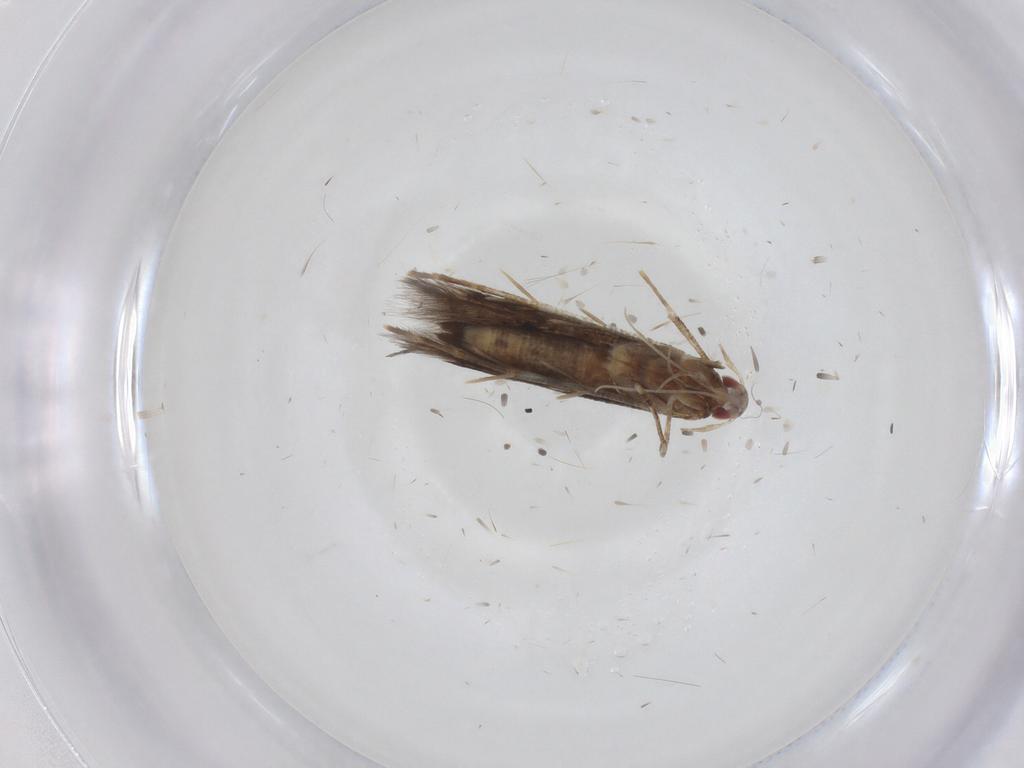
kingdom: Animalia
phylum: Arthropoda
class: Insecta
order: Lepidoptera
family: Cosmopterigidae
